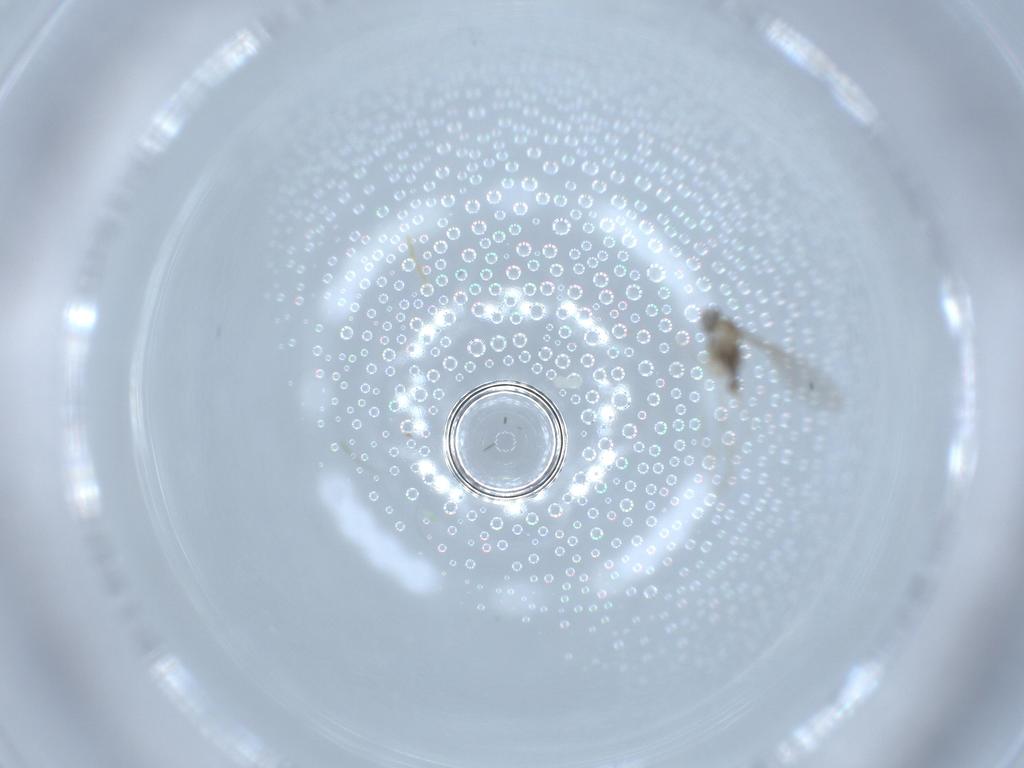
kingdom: Animalia
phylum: Arthropoda
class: Insecta
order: Diptera
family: Cecidomyiidae
